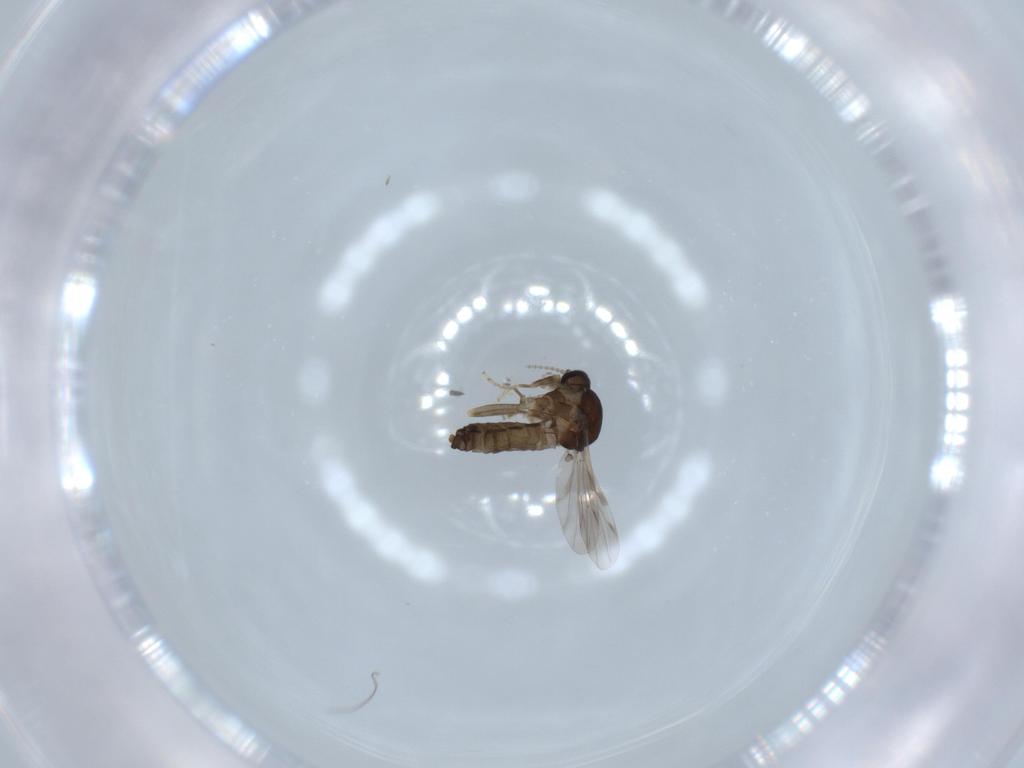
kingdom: Animalia
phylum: Arthropoda
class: Insecta
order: Diptera
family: Ceratopogonidae
